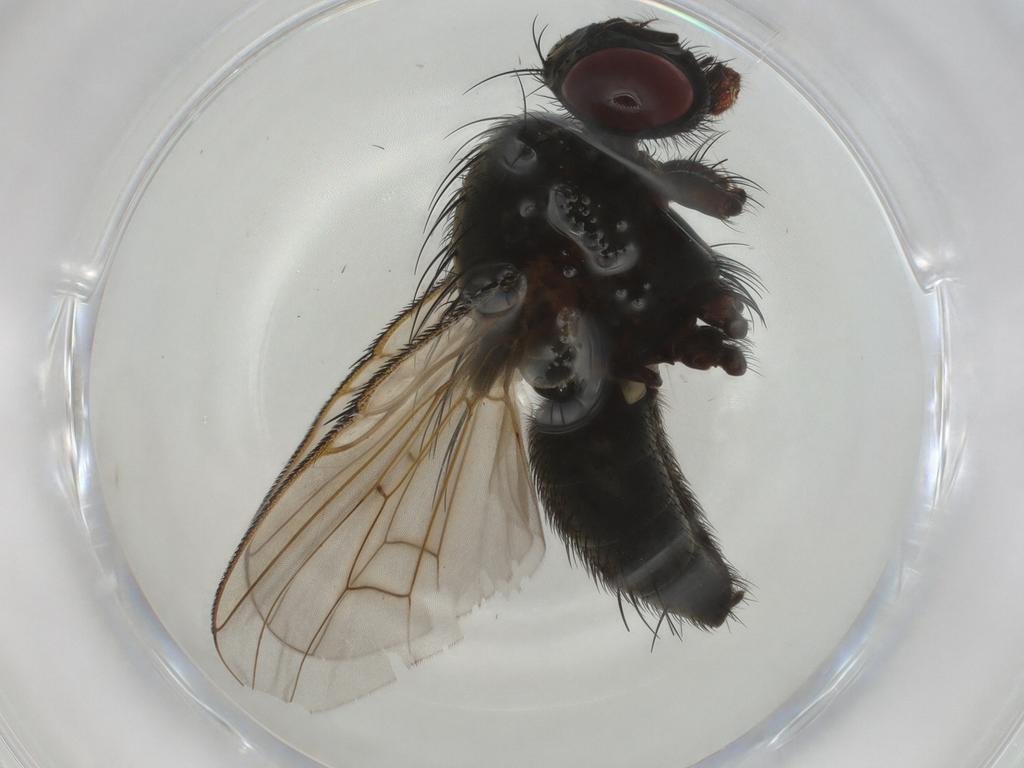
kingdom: Animalia
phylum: Arthropoda
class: Insecta
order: Diptera
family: Muscidae
